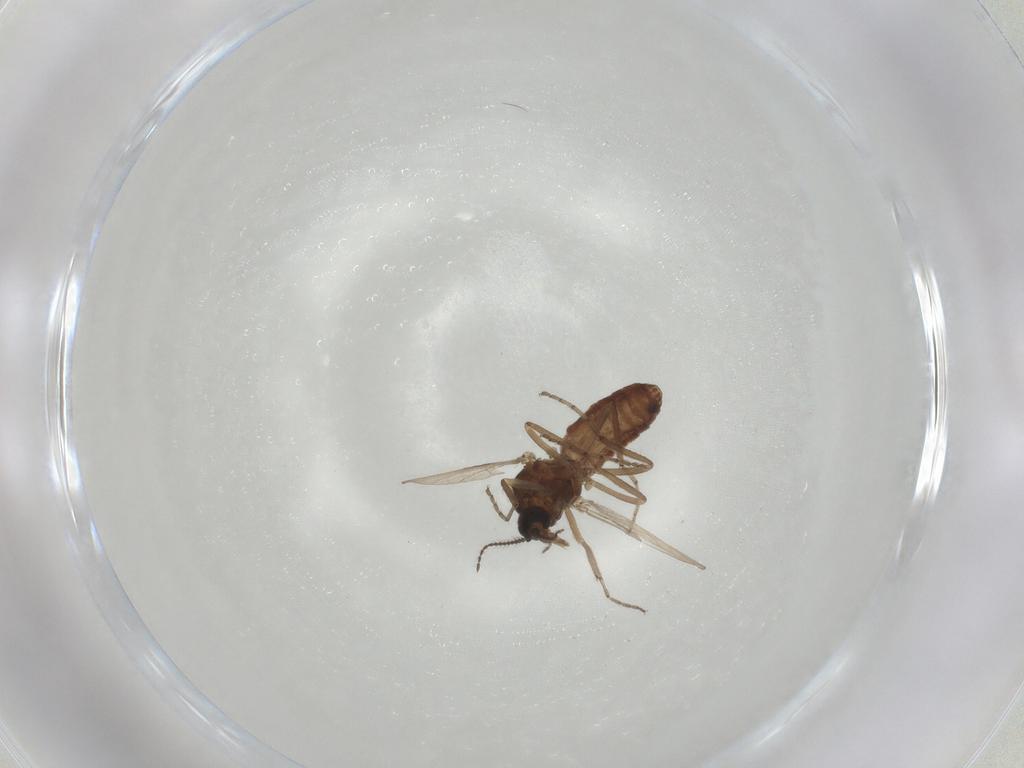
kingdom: Animalia
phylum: Arthropoda
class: Insecta
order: Diptera
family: Ceratopogonidae
